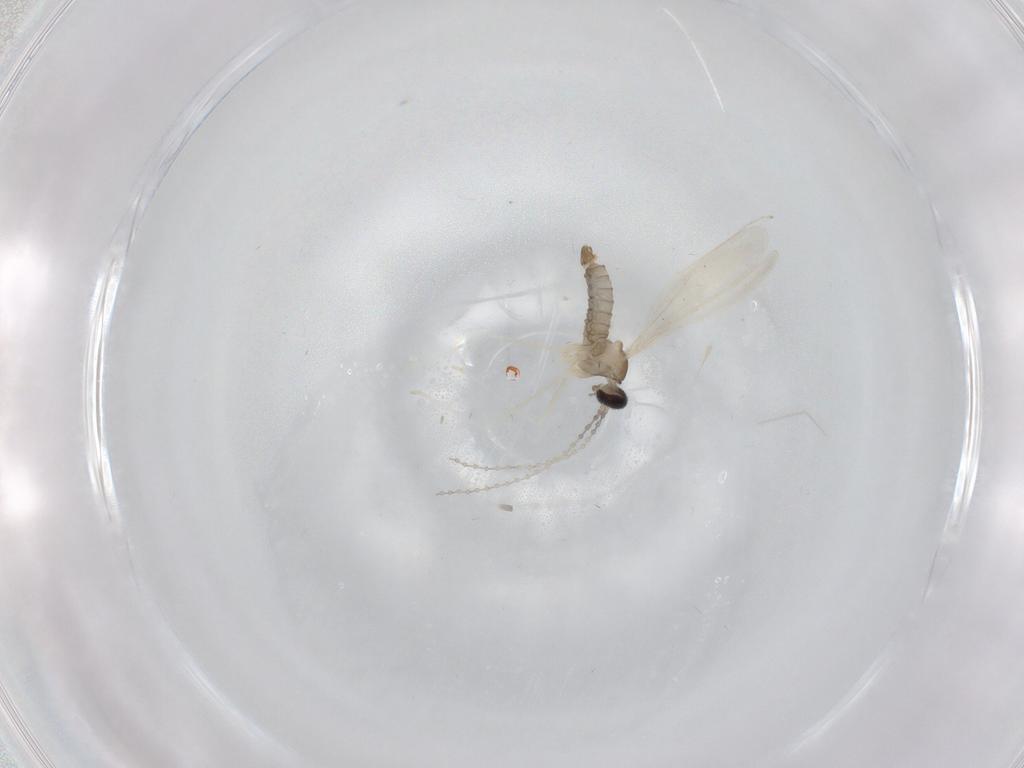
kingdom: Animalia
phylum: Arthropoda
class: Insecta
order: Diptera
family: Cecidomyiidae
